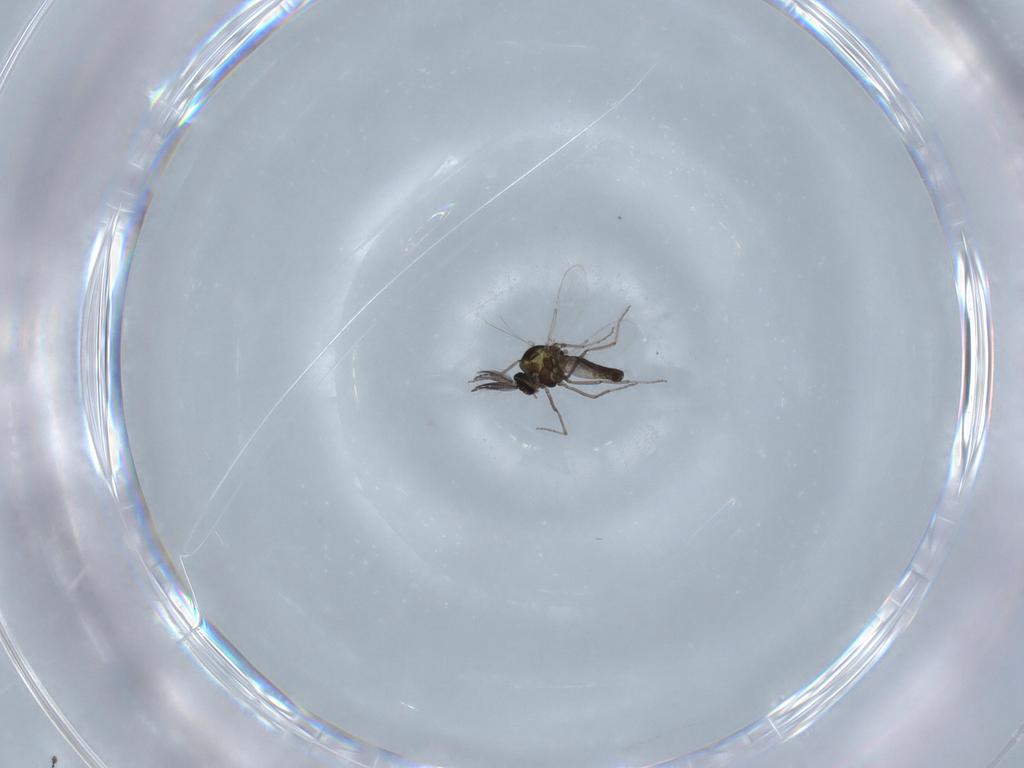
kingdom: Animalia
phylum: Arthropoda
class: Insecta
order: Diptera
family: Ceratopogonidae
